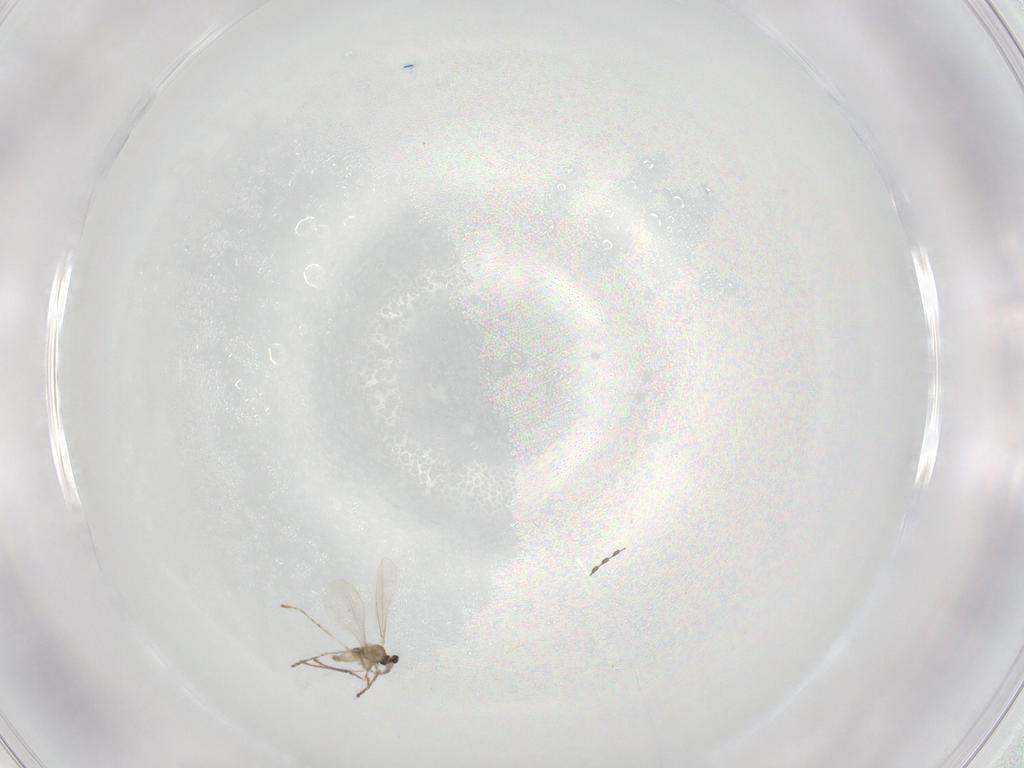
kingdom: Animalia
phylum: Arthropoda
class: Insecta
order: Diptera
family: Cecidomyiidae
